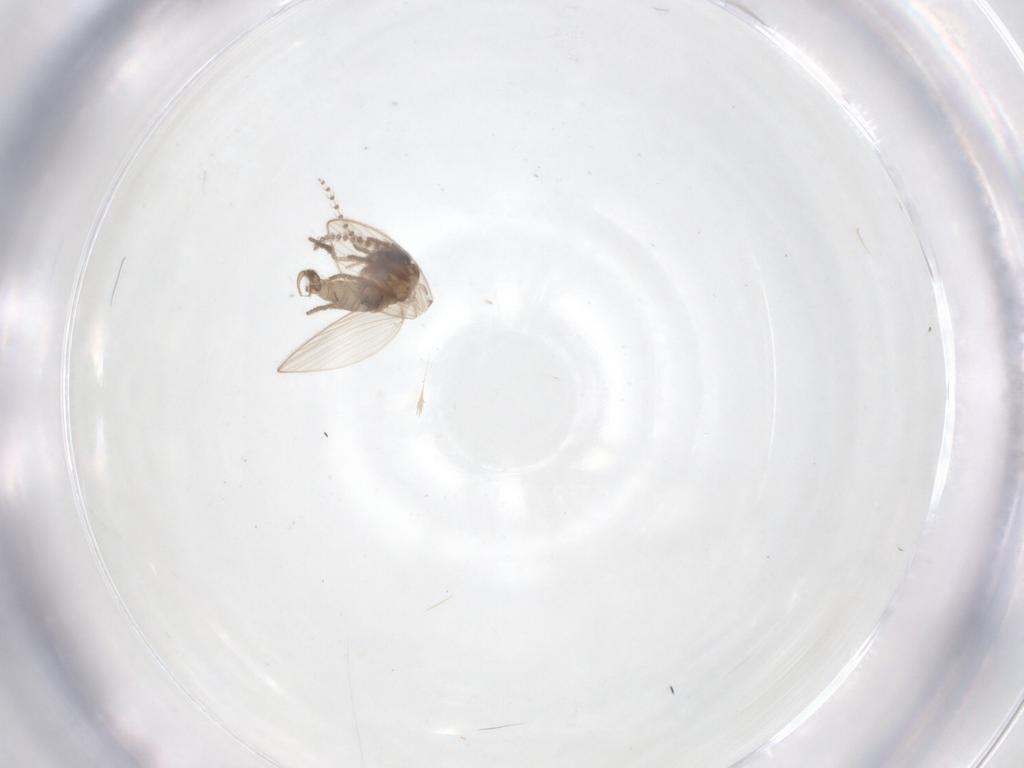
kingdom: Animalia
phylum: Arthropoda
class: Insecta
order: Diptera
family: Psychodidae
